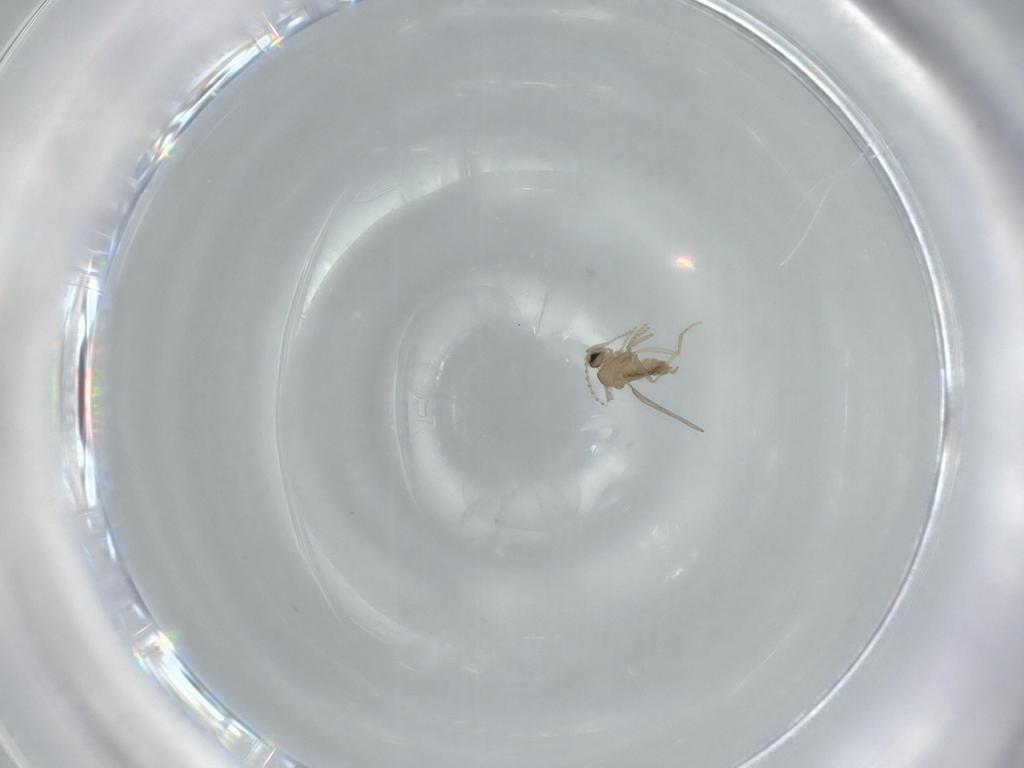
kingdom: Animalia
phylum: Arthropoda
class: Insecta
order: Diptera
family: Cecidomyiidae
